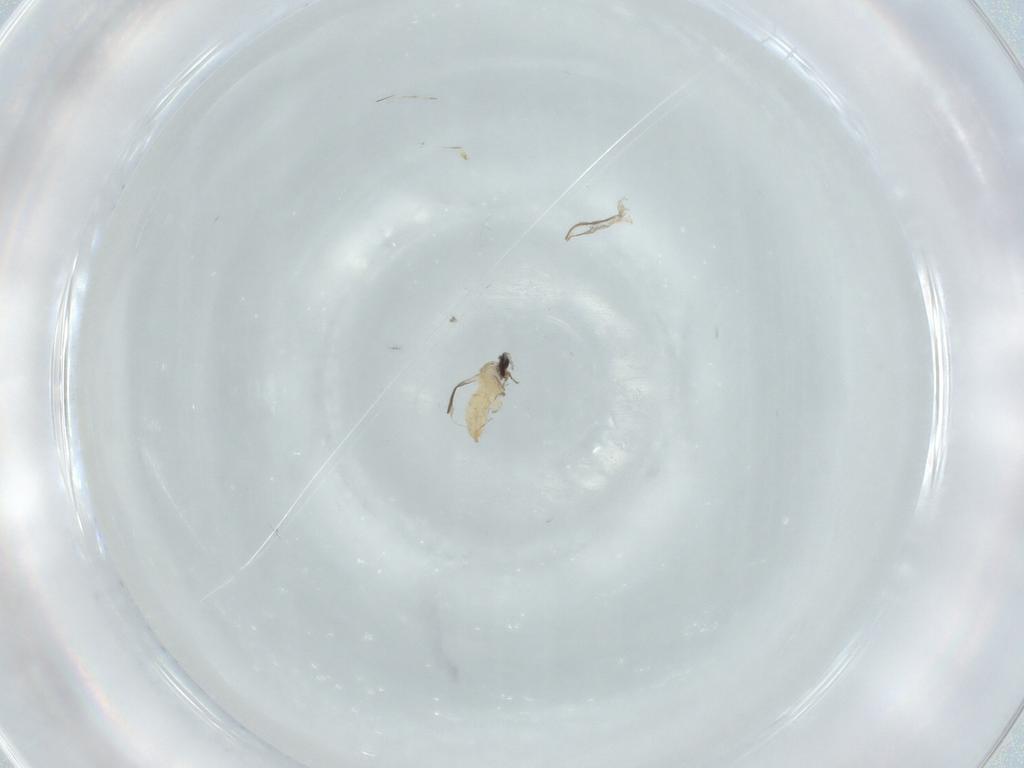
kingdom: Animalia
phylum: Arthropoda
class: Insecta
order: Diptera
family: Cecidomyiidae
